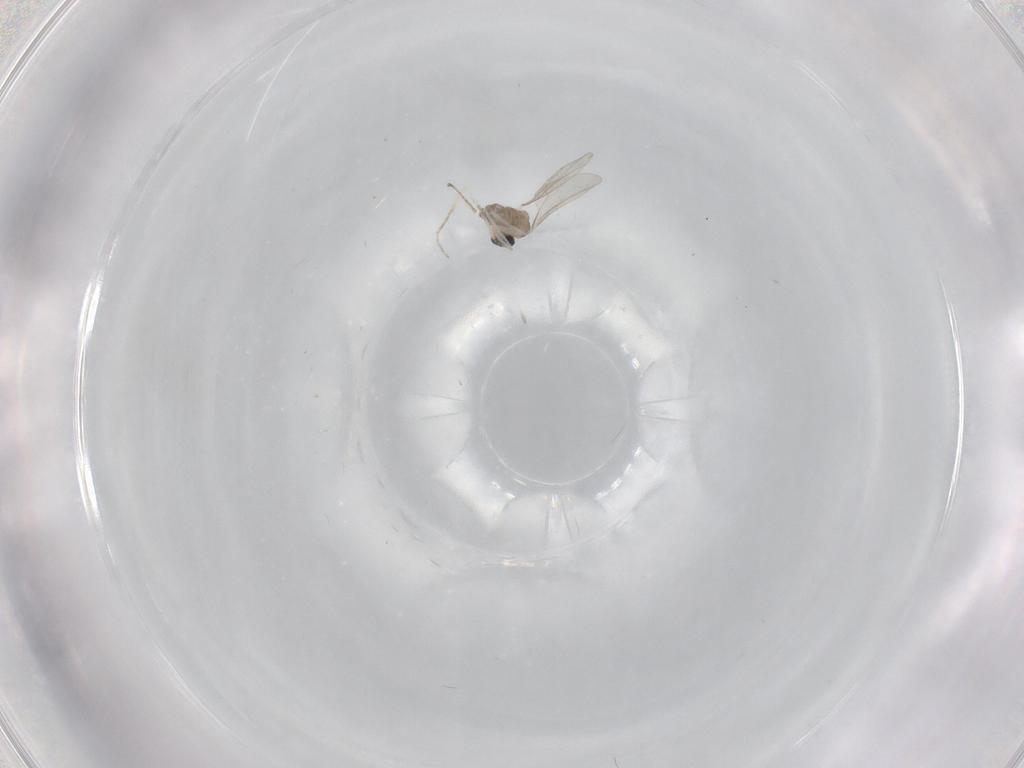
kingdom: Animalia
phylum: Arthropoda
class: Insecta
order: Diptera
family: Cecidomyiidae
